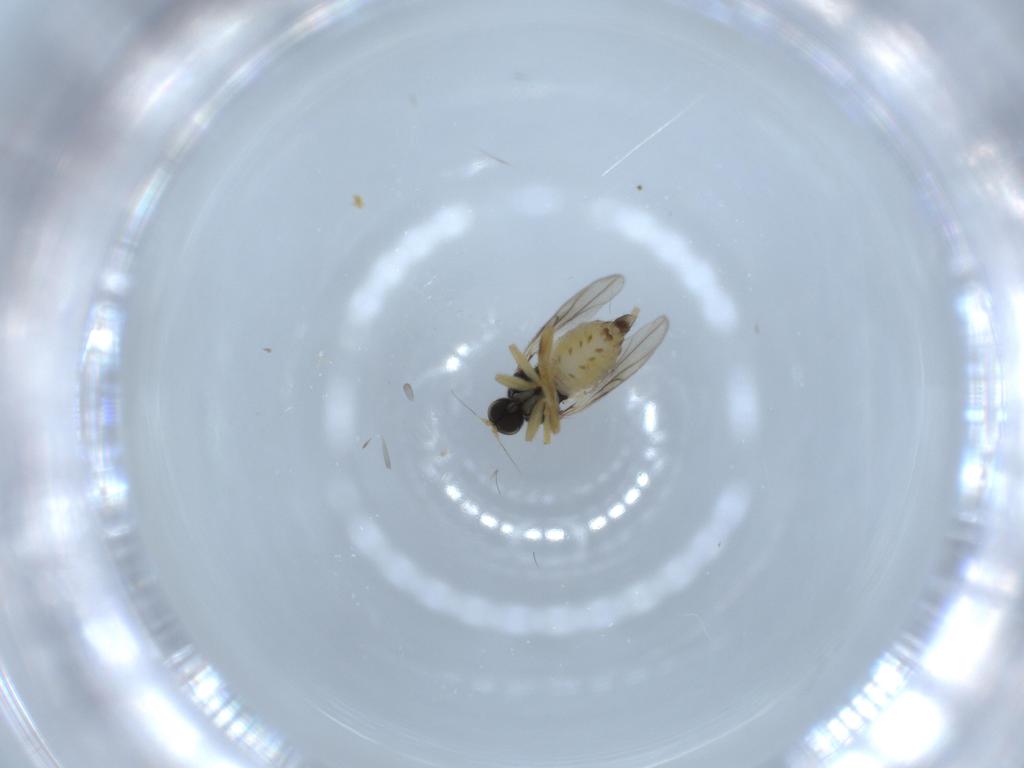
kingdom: Animalia
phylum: Arthropoda
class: Insecta
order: Diptera
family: Hybotidae
